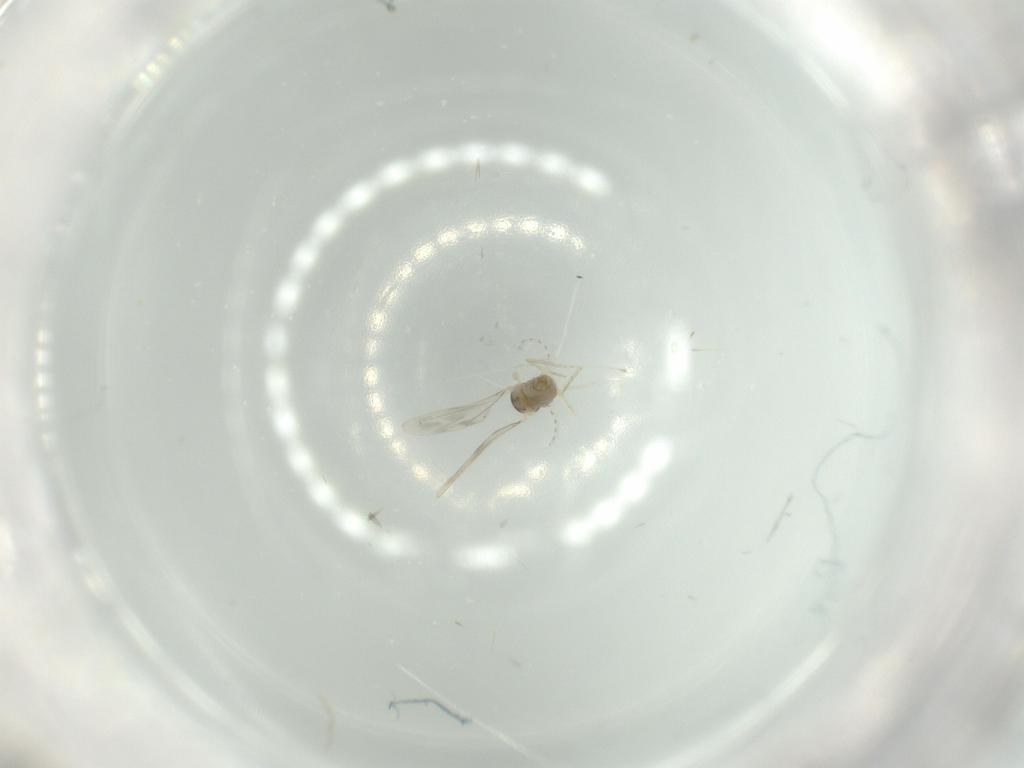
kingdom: Animalia
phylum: Arthropoda
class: Insecta
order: Diptera
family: Cecidomyiidae
